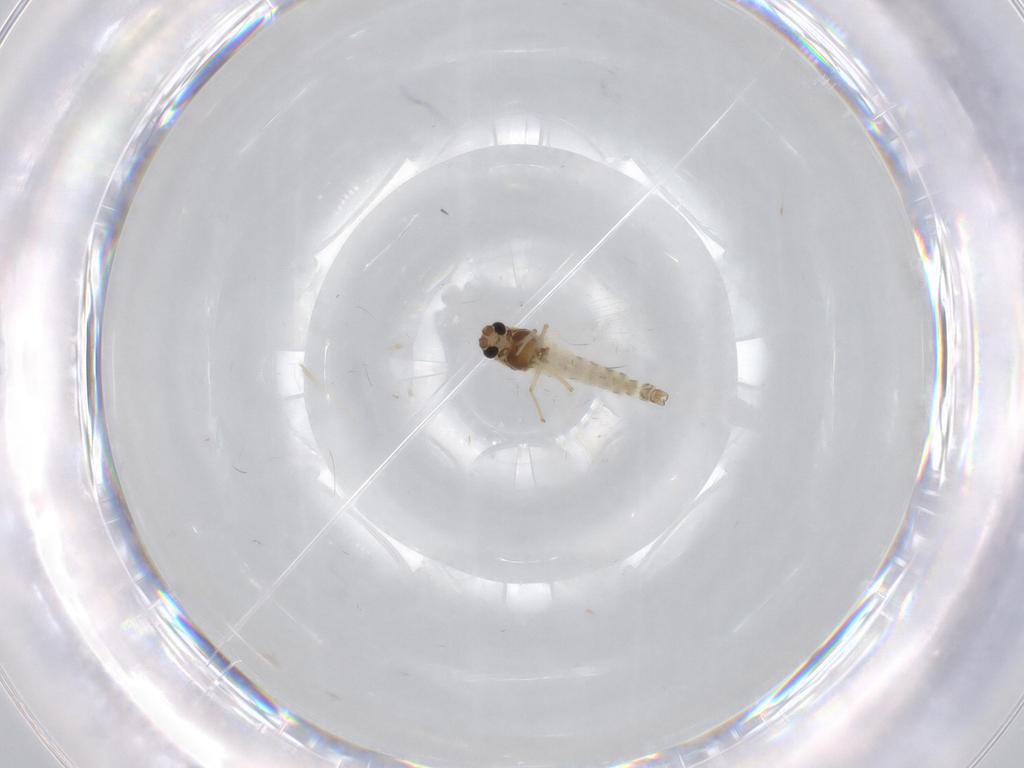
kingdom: Animalia
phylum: Arthropoda
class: Insecta
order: Diptera
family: Chironomidae
